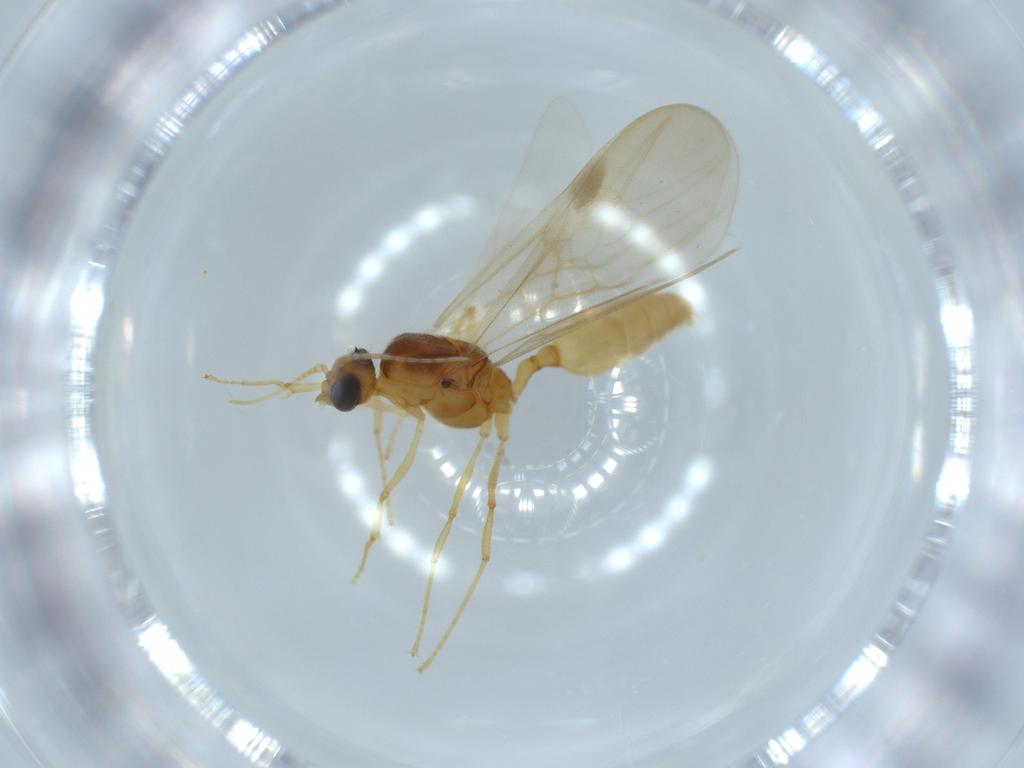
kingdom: Animalia
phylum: Arthropoda
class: Insecta
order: Hymenoptera
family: Formicidae
